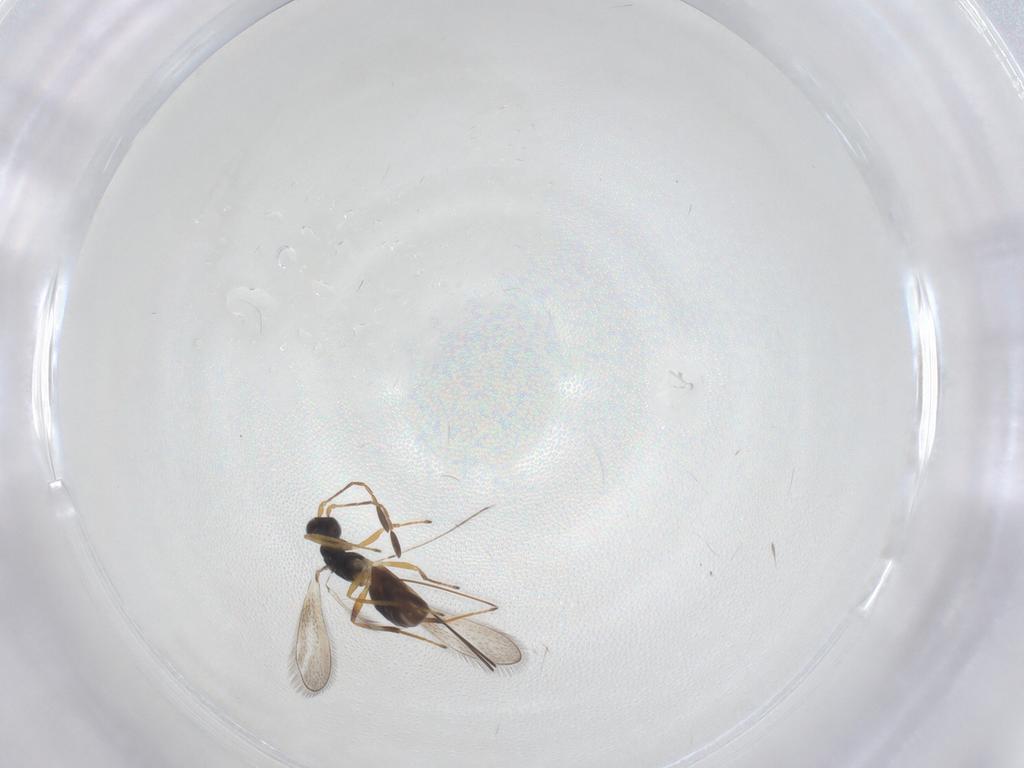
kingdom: Animalia
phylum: Arthropoda
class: Insecta
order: Hymenoptera
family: Mymaridae
